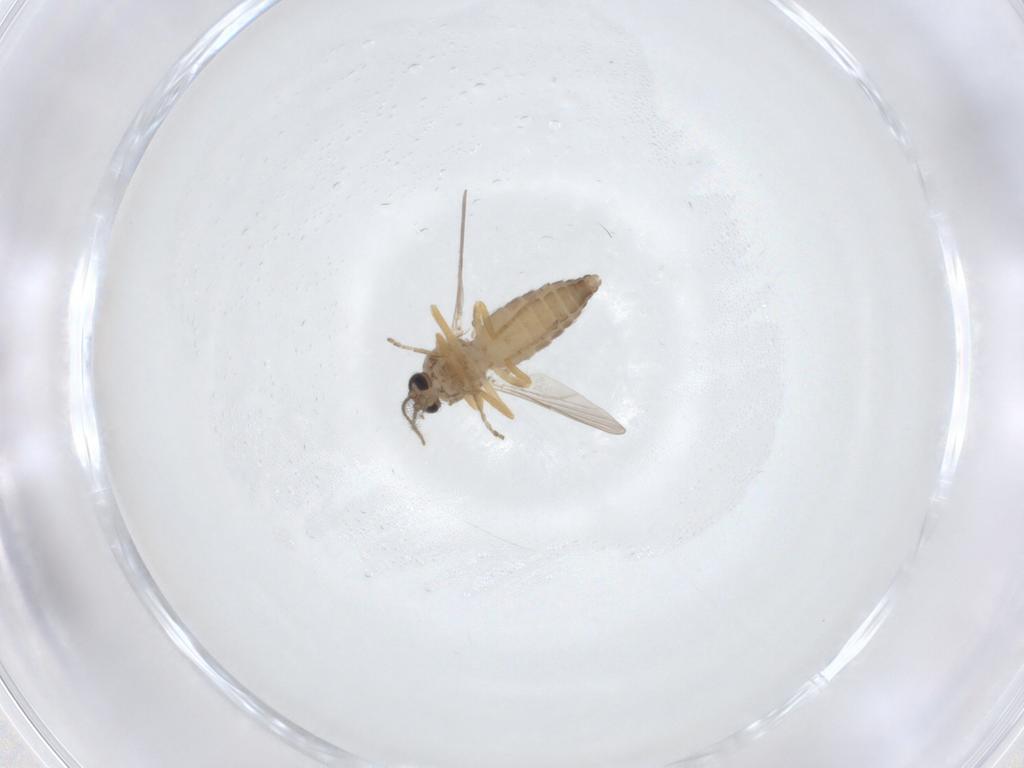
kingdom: Animalia
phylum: Arthropoda
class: Insecta
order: Diptera
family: Ceratopogonidae
